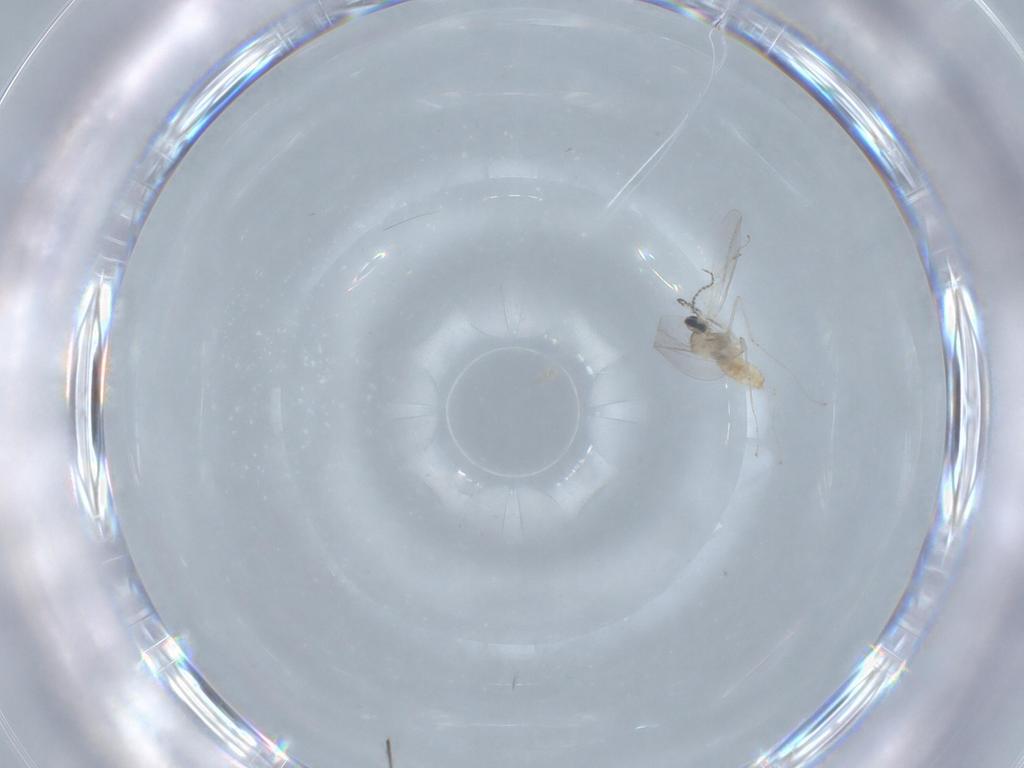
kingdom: Animalia
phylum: Arthropoda
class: Insecta
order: Diptera
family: Cecidomyiidae
